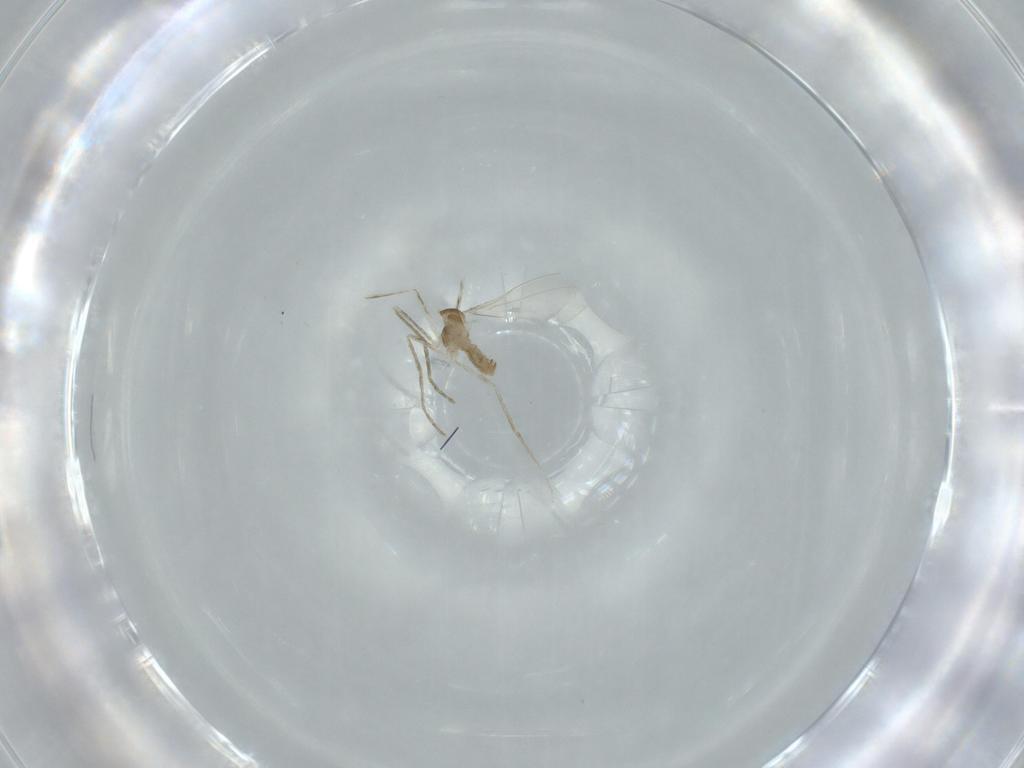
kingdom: Animalia
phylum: Arthropoda
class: Insecta
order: Diptera
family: Cecidomyiidae
